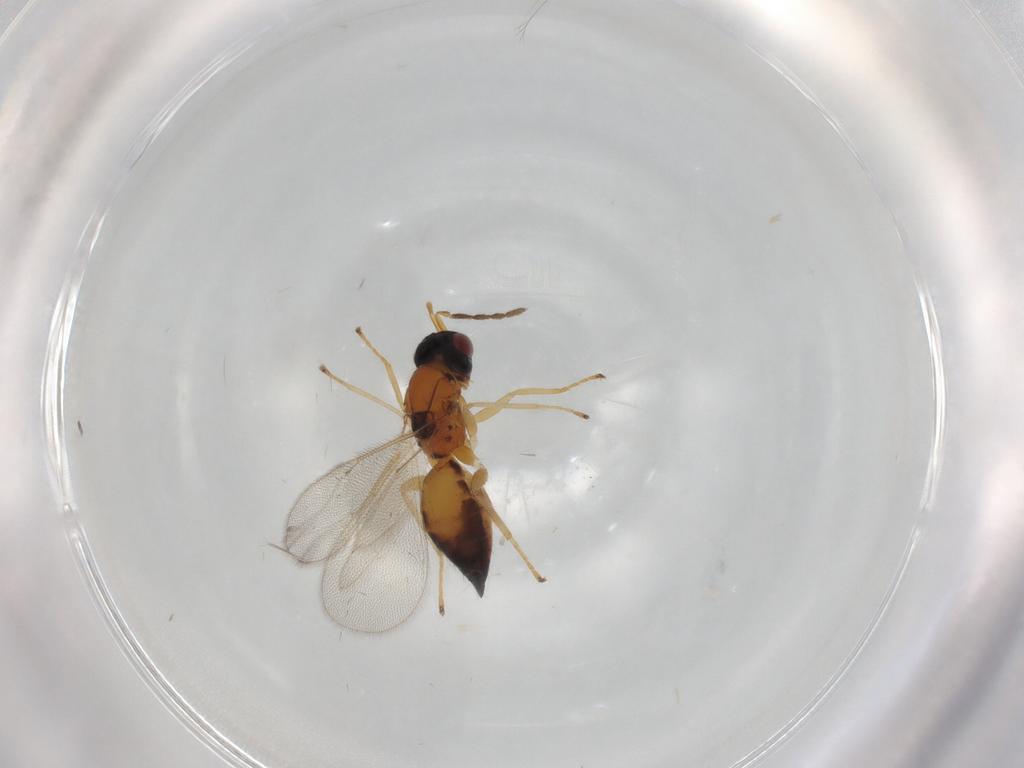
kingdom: Animalia
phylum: Arthropoda
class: Insecta
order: Hymenoptera
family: Eulophidae
